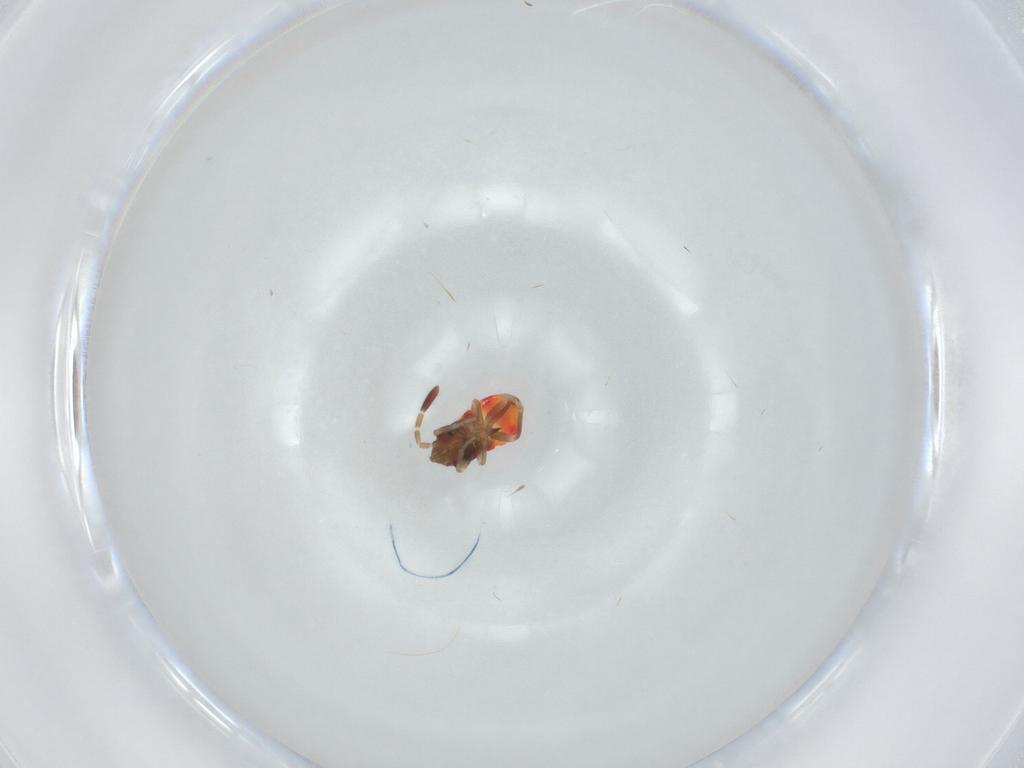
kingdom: Animalia
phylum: Arthropoda
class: Insecta
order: Hemiptera
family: Rhyparochromidae
